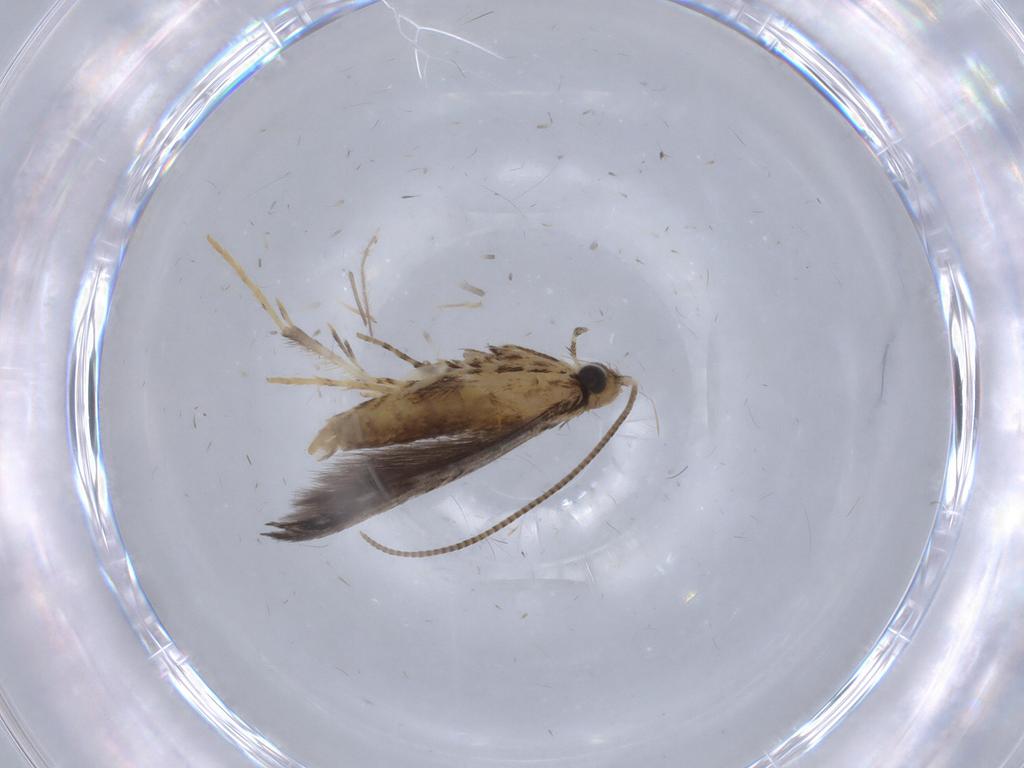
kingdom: Animalia
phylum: Arthropoda
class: Insecta
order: Lepidoptera
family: Gracillariidae
